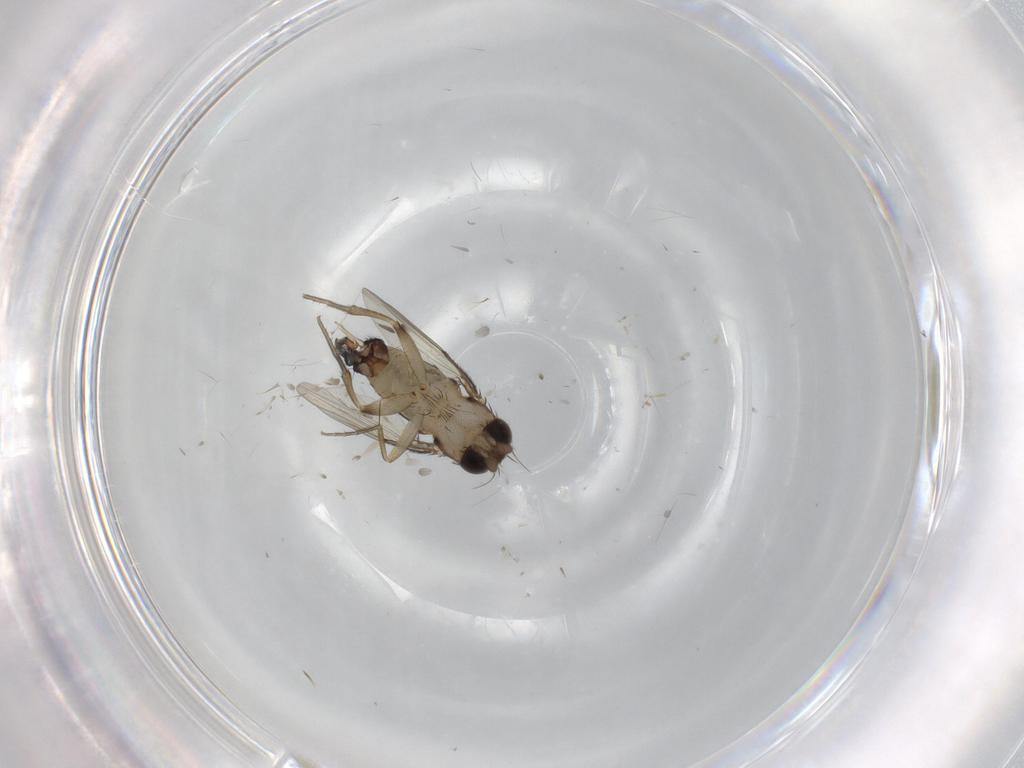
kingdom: Animalia
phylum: Arthropoda
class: Insecta
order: Diptera
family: Phoridae
